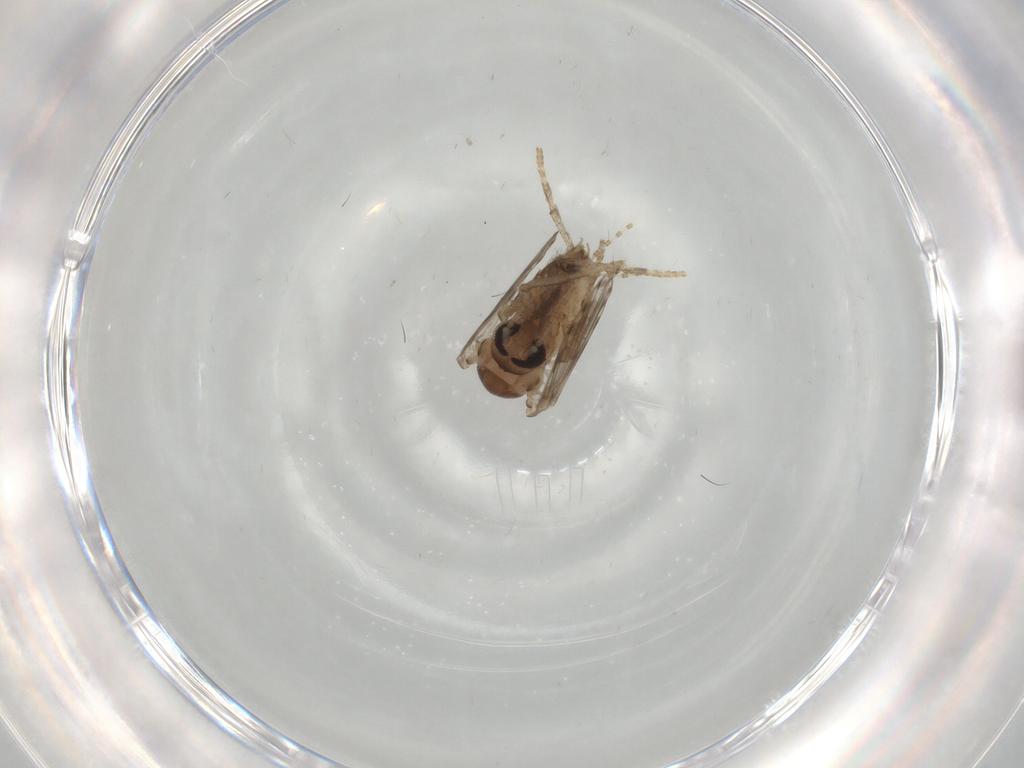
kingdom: Animalia
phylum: Arthropoda
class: Insecta
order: Diptera
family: Psychodidae
